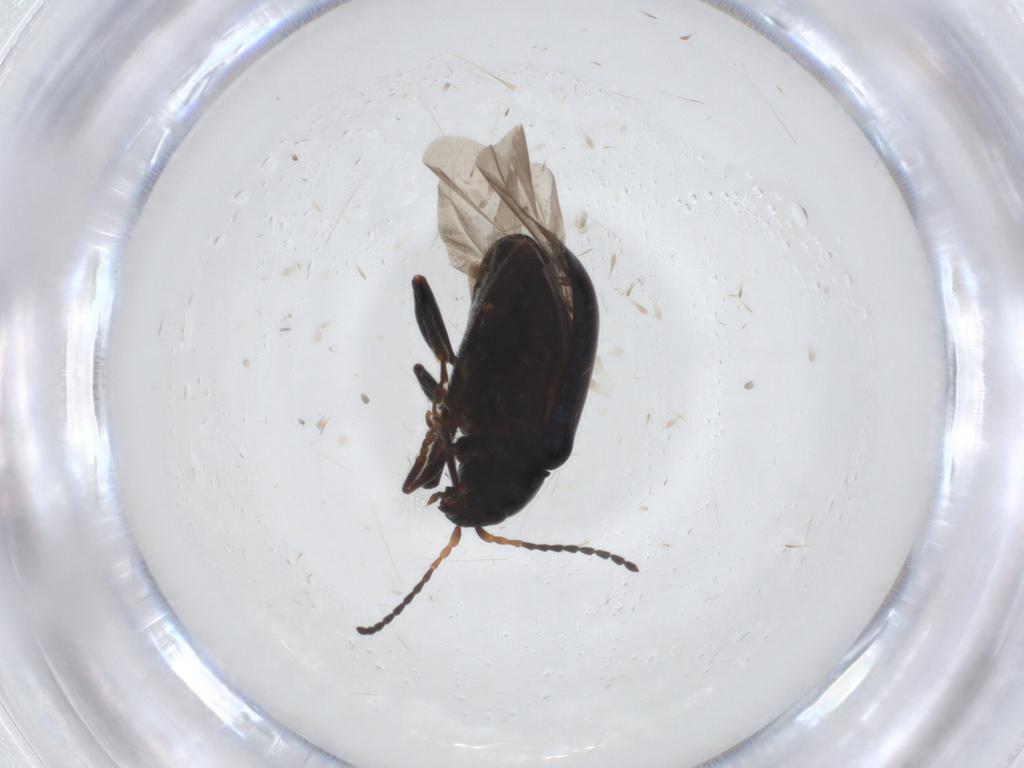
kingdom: Animalia
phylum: Arthropoda
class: Insecta
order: Coleoptera
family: Chrysomelidae
